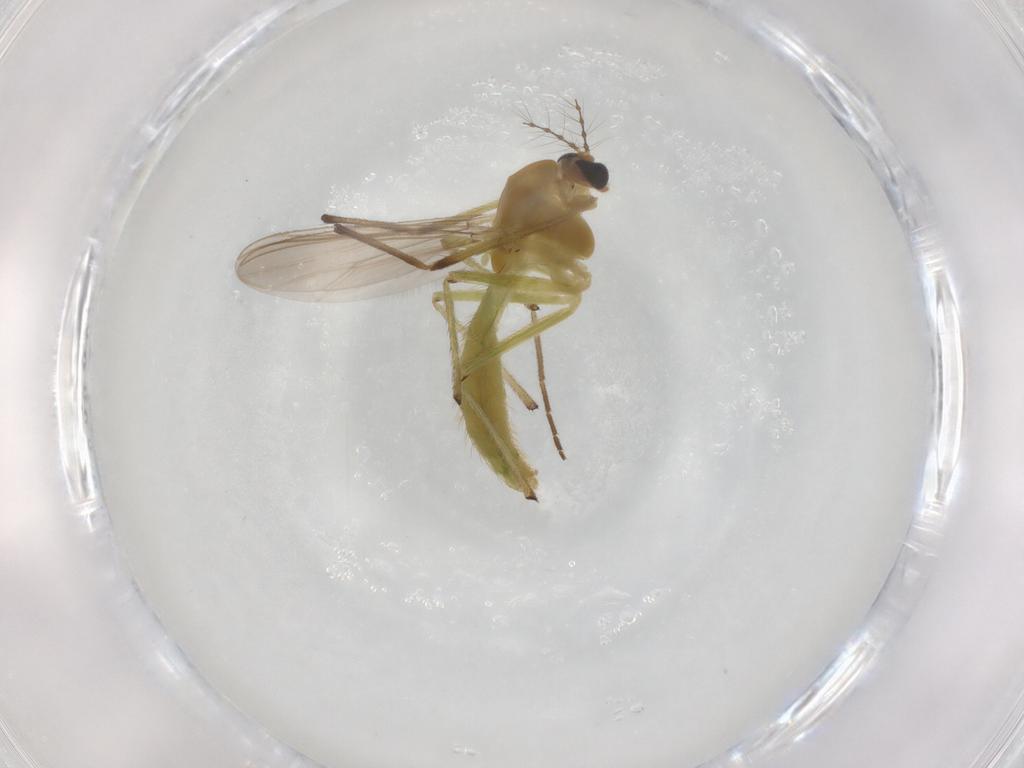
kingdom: Animalia
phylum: Arthropoda
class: Insecta
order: Diptera
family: Chironomidae
